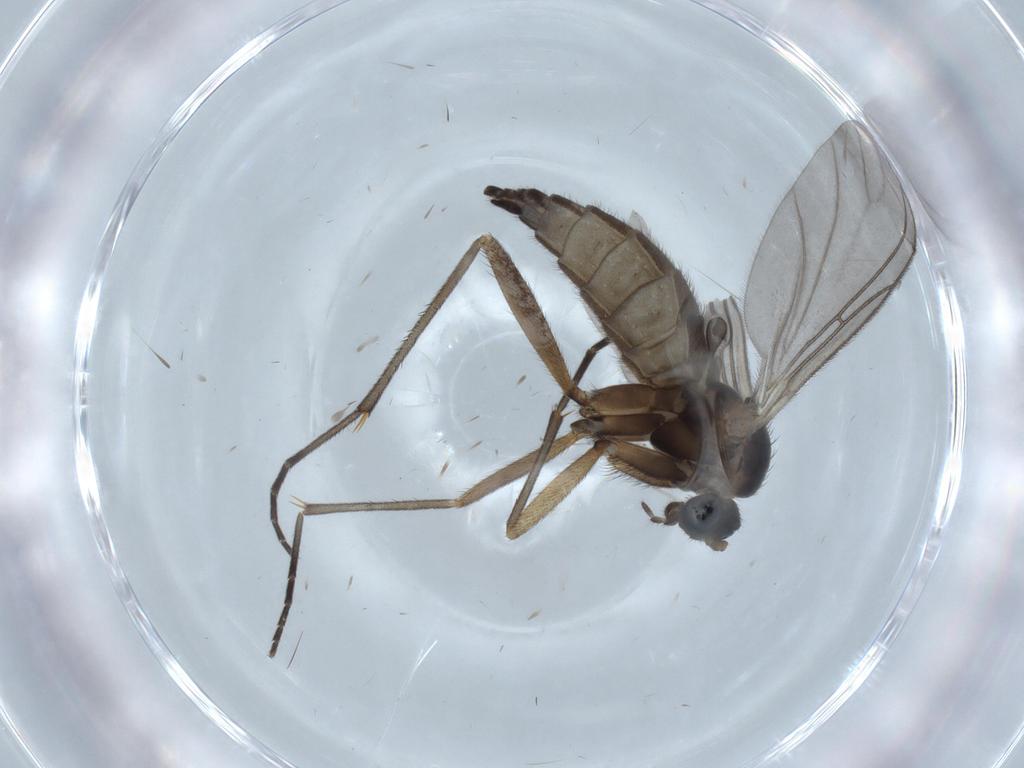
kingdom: Animalia
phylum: Arthropoda
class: Insecta
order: Diptera
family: Sciaridae
